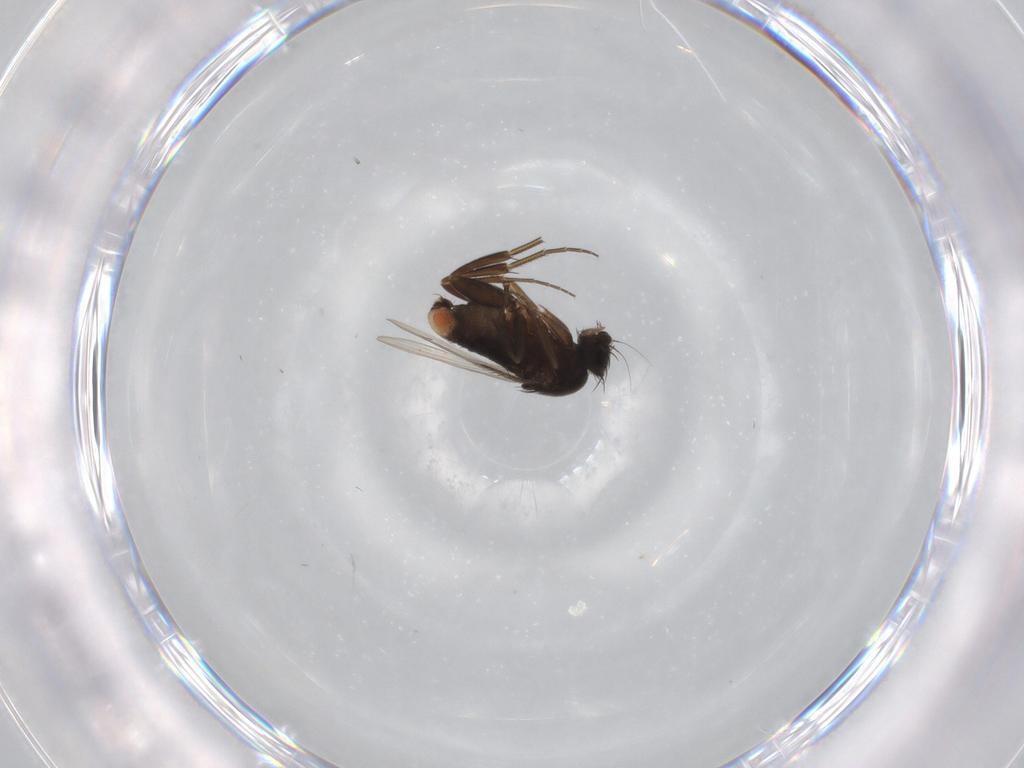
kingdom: Animalia
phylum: Arthropoda
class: Insecta
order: Diptera
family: Phoridae
